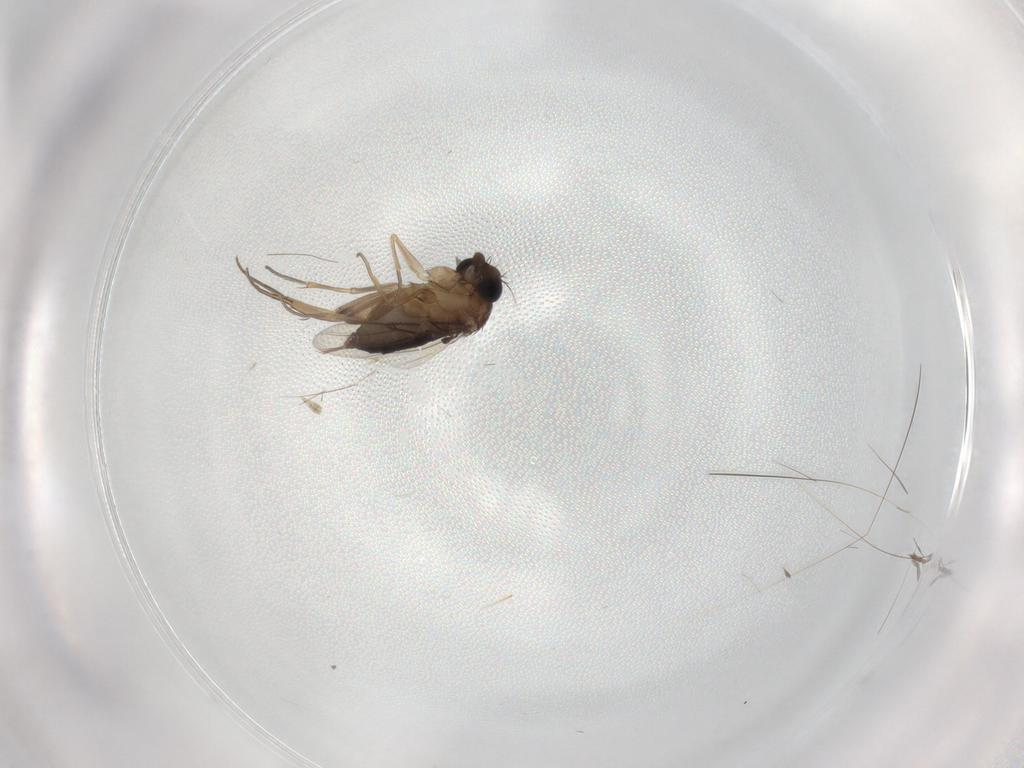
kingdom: Animalia
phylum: Arthropoda
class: Insecta
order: Diptera
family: Phoridae
